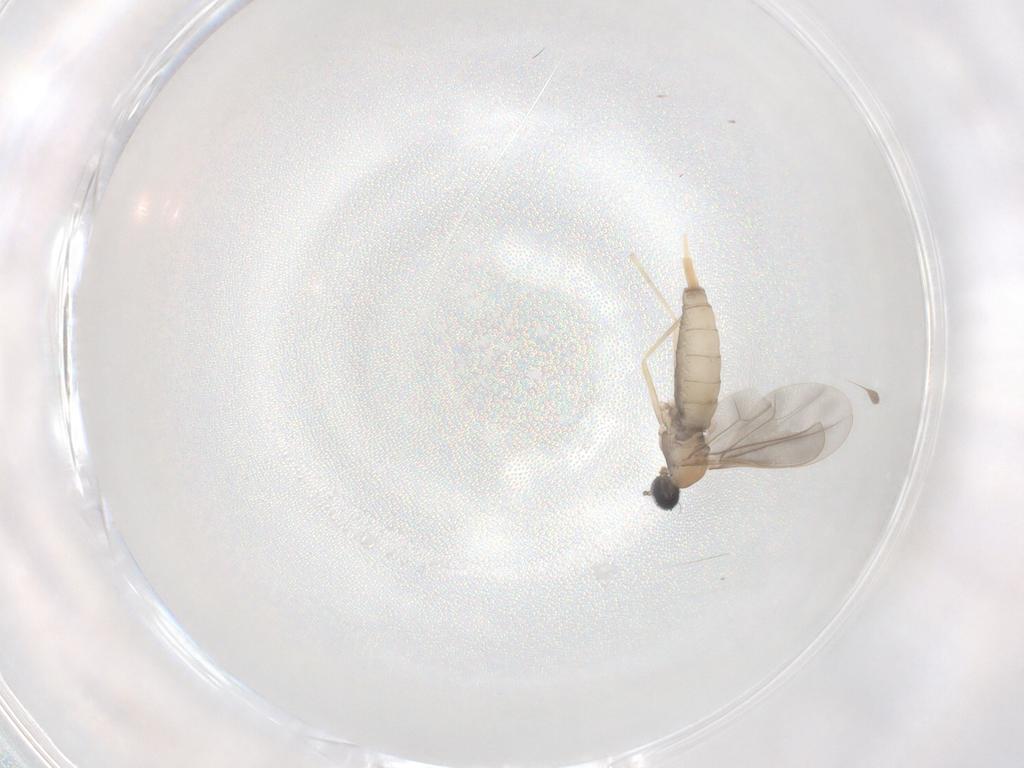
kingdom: Animalia
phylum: Arthropoda
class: Insecta
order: Diptera
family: Cecidomyiidae
